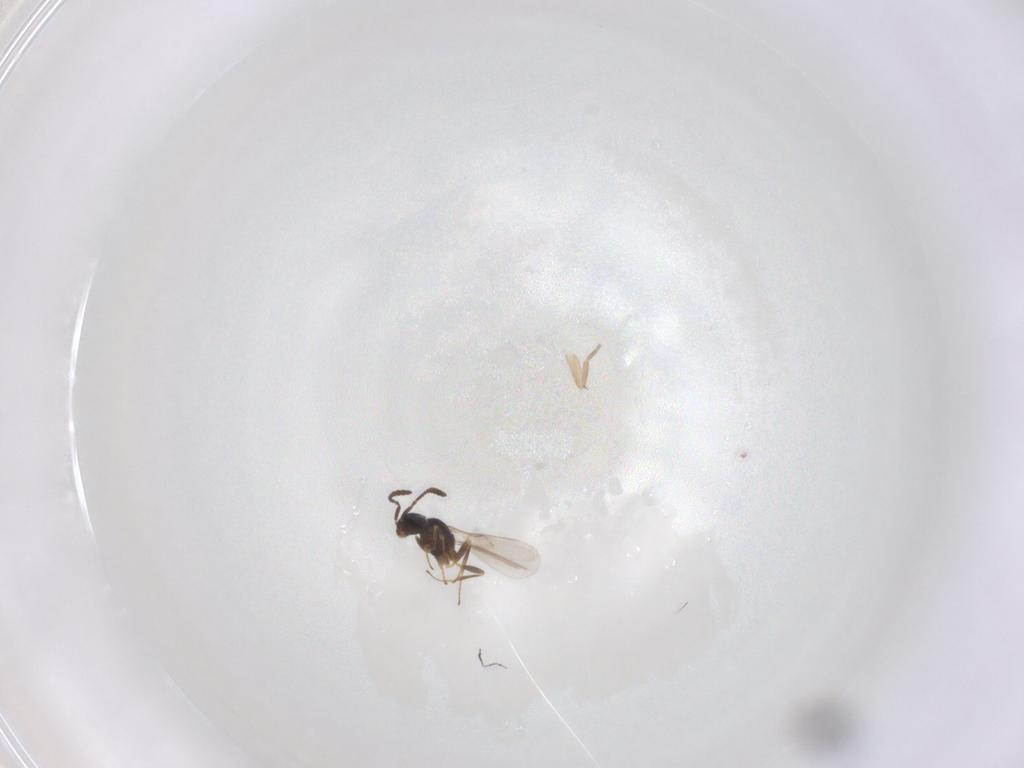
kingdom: Animalia
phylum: Arthropoda
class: Insecta
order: Hymenoptera
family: Scelionidae
